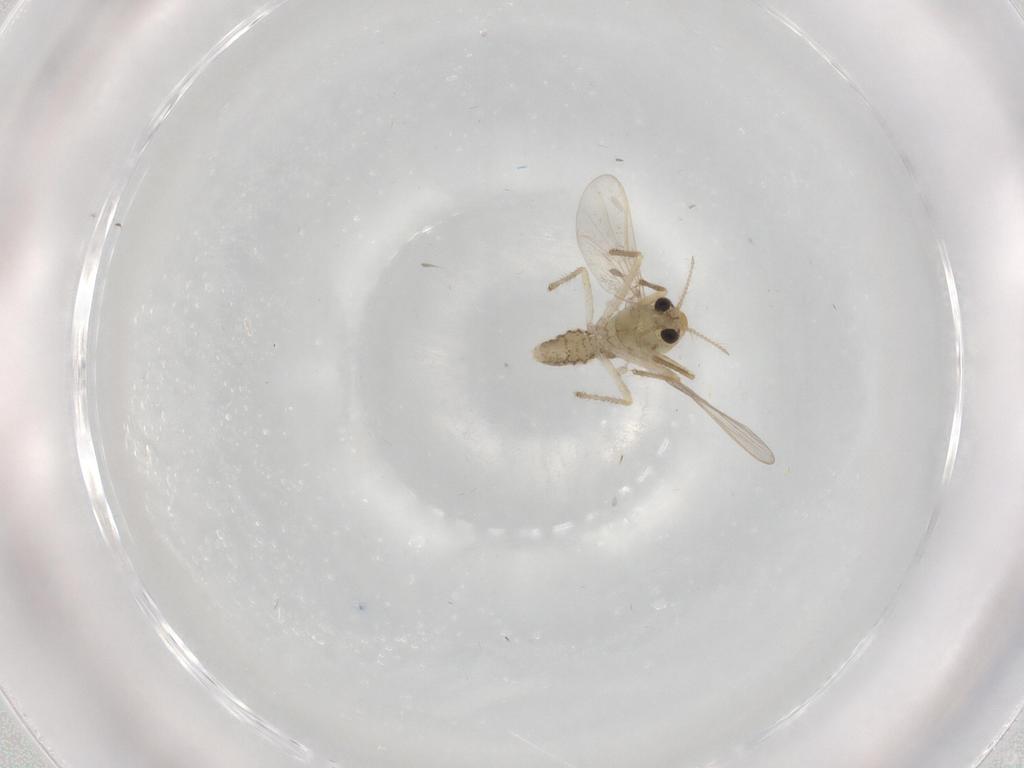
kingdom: Animalia
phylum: Arthropoda
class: Insecta
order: Diptera
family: Chironomidae
